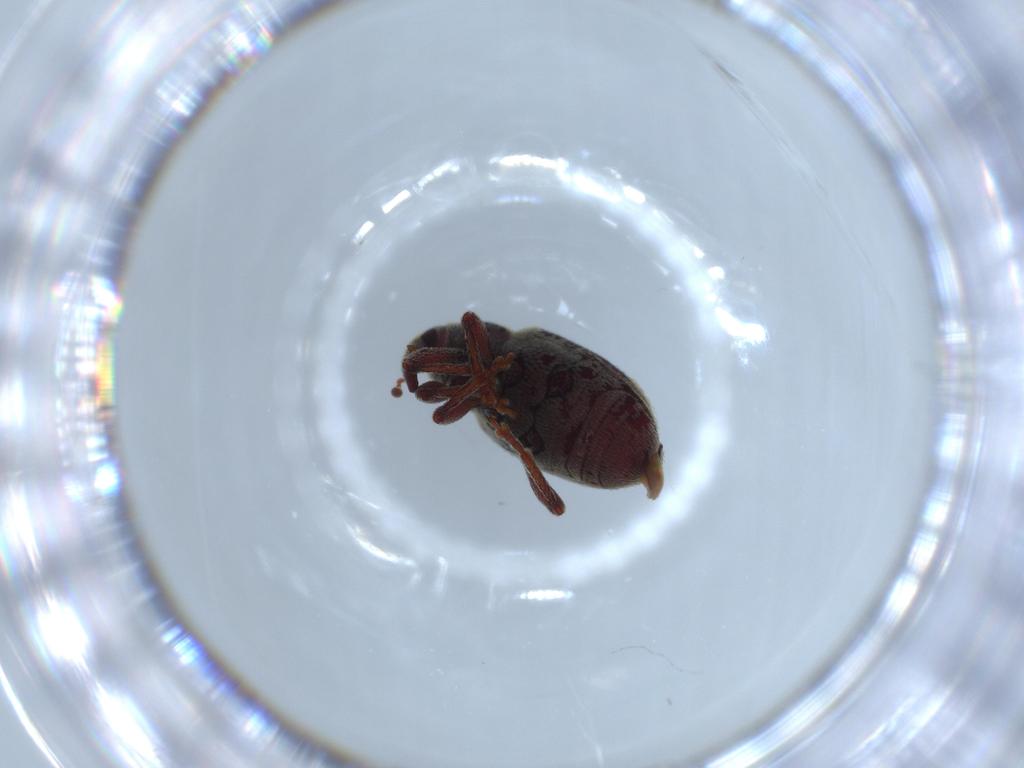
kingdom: Animalia
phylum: Arthropoda
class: Insecta
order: Coleoptera
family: Curculionidae
